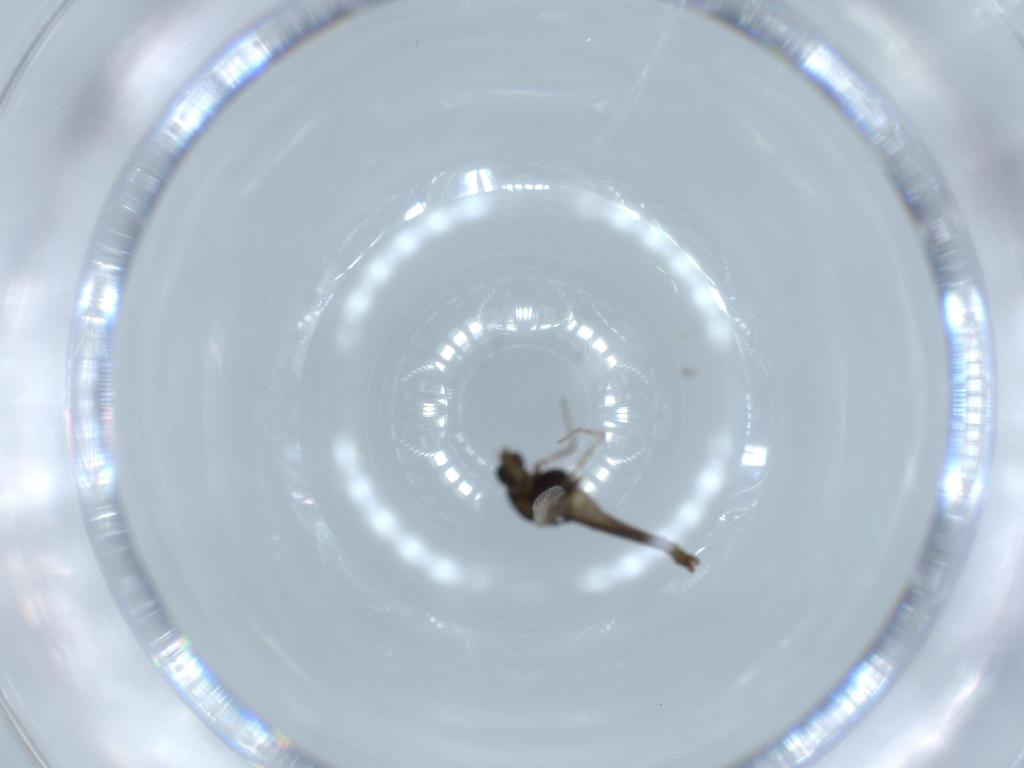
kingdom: Animalia
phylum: Arthropoda
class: Insecta
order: Diptera
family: Chironomidae
